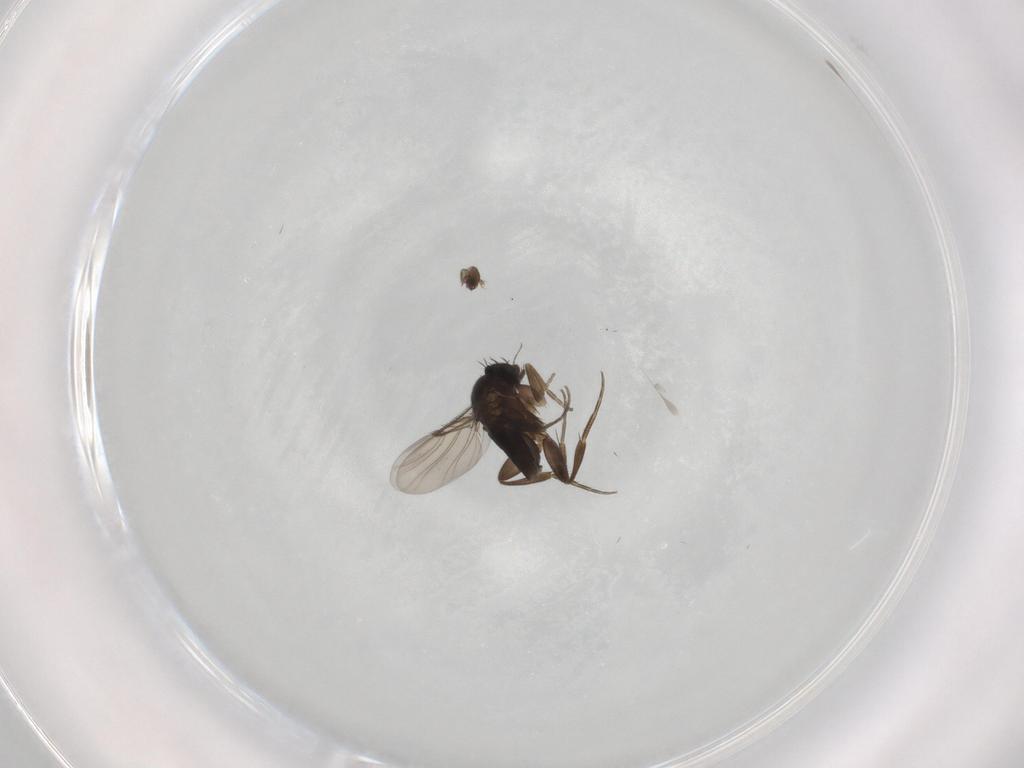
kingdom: Animalia
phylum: Arthropoda
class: Insecta
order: Diptera
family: Phoridae
